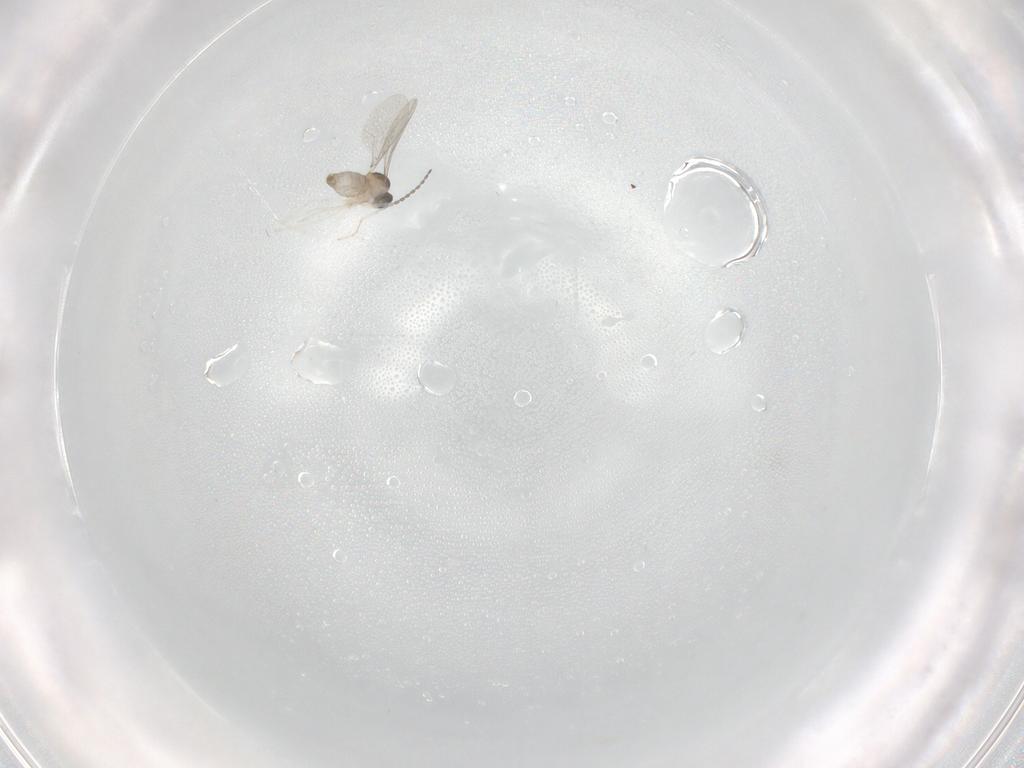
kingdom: Animalia
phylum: Arthropoda
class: Insecta
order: Diptera
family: Cecidomyiidae
